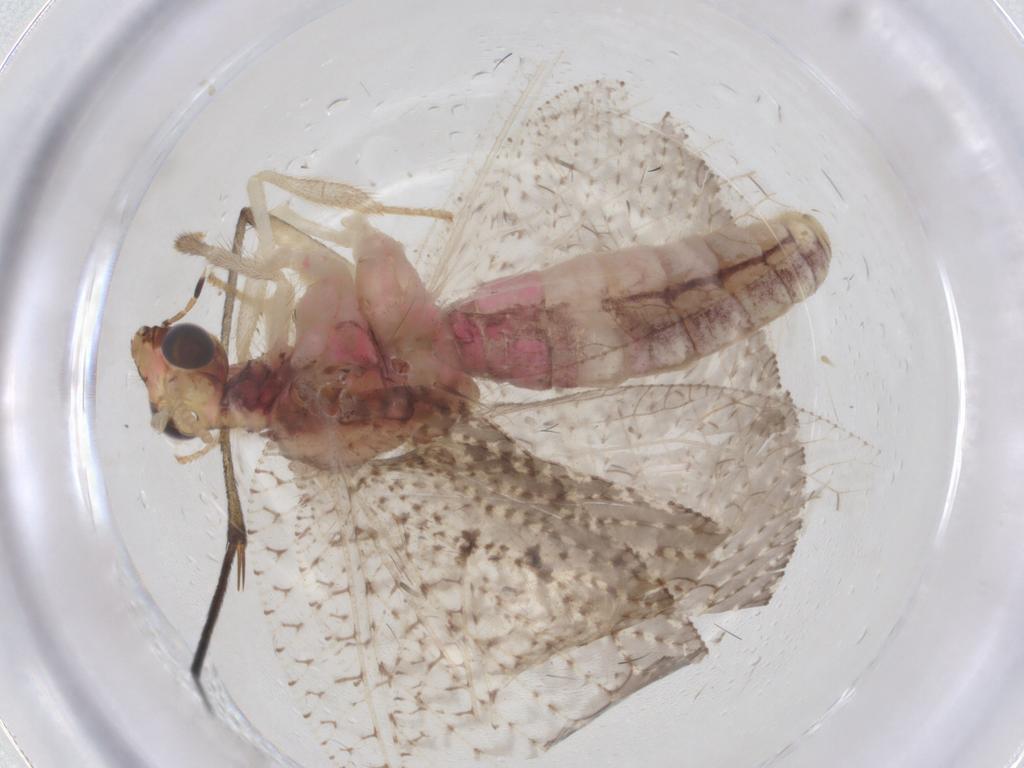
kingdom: Animalia
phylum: Arthropoda
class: Insecta
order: Neuroptera
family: Hemerobiidae
